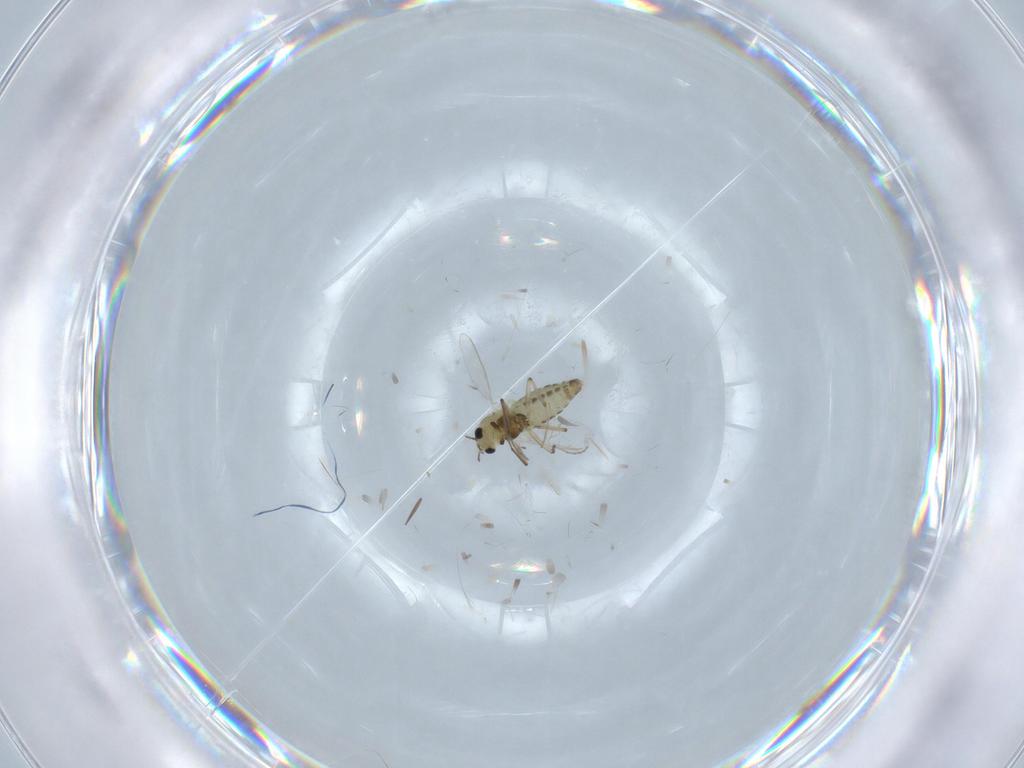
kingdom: Animalia
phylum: Arthropoda
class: Insecta
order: Diptera
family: Chironomidae
